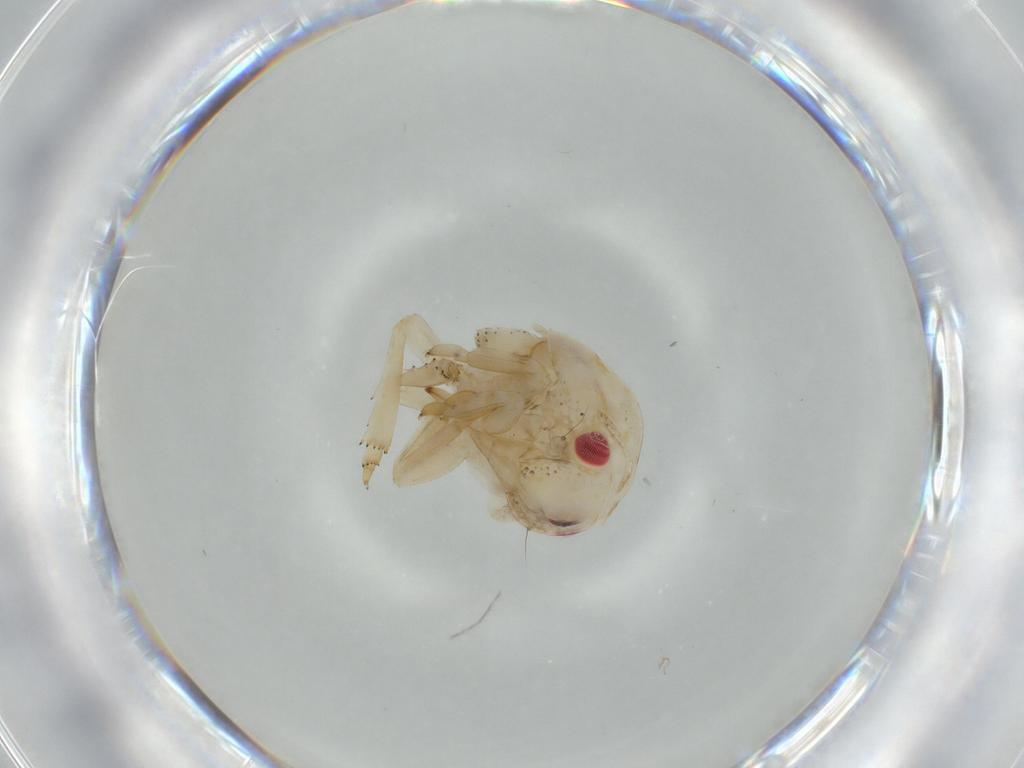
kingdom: Animalia
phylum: Arthropoda
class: Insecta
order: Hemiptera
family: Acanaloniidae
